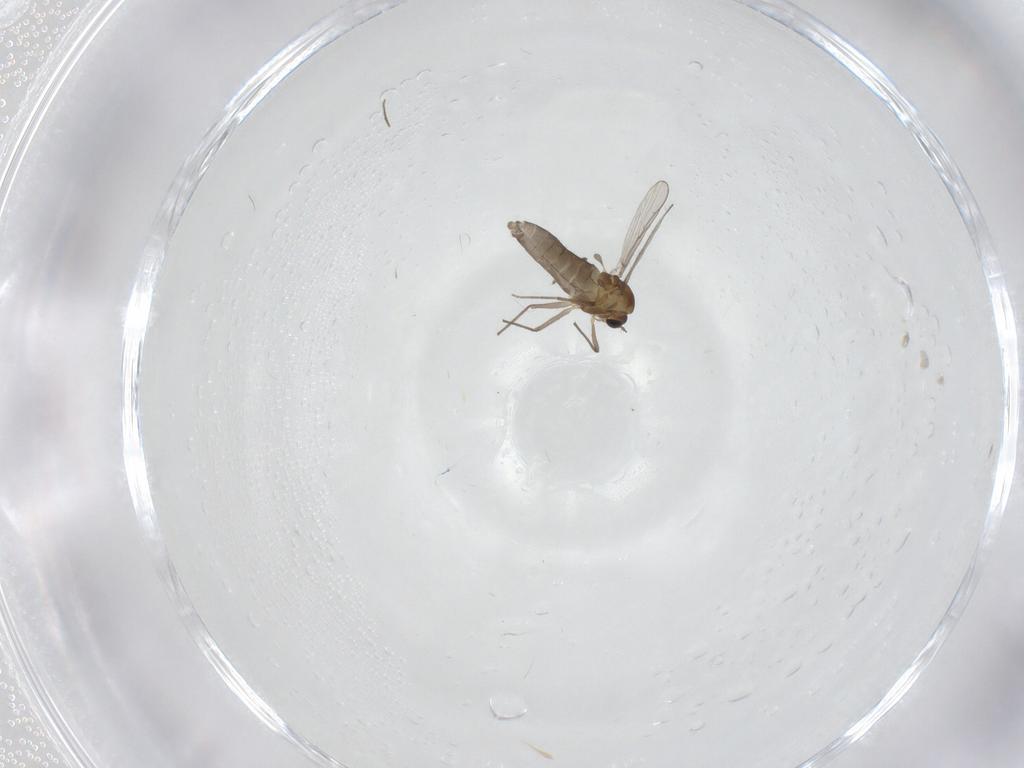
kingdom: Animalia
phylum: Arthropoda
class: Insecta
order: Diptera
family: Chironomidae
